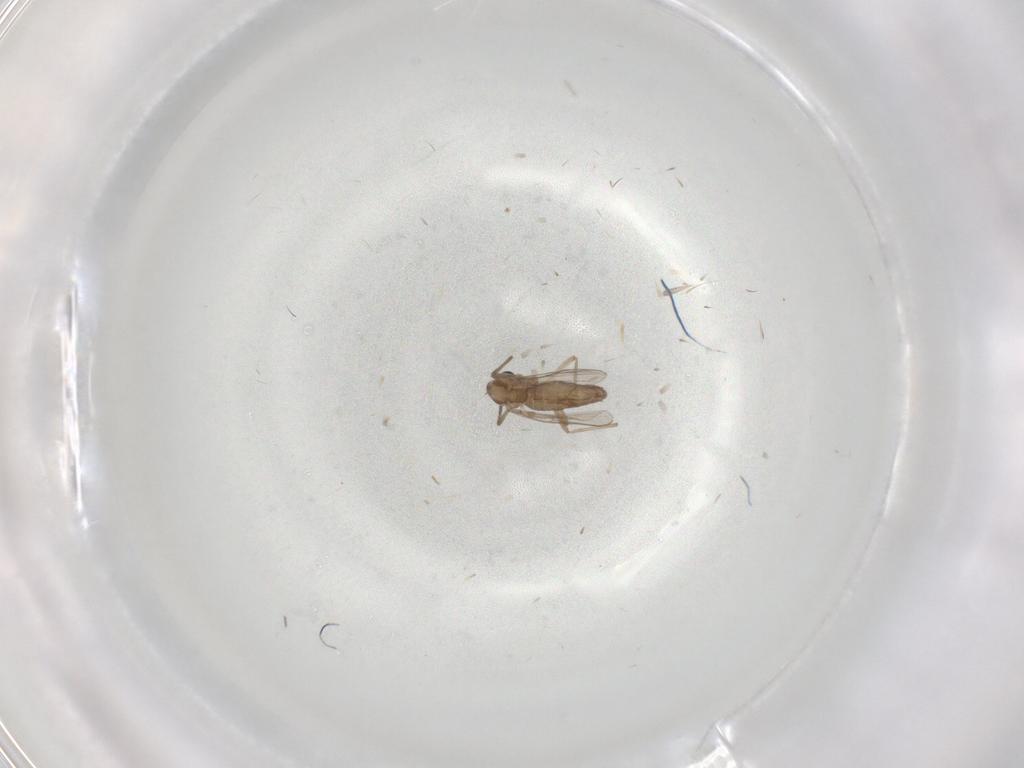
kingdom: Animalia
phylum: Arthropoda
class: Insecta
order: Diptera
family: Chironomidae
